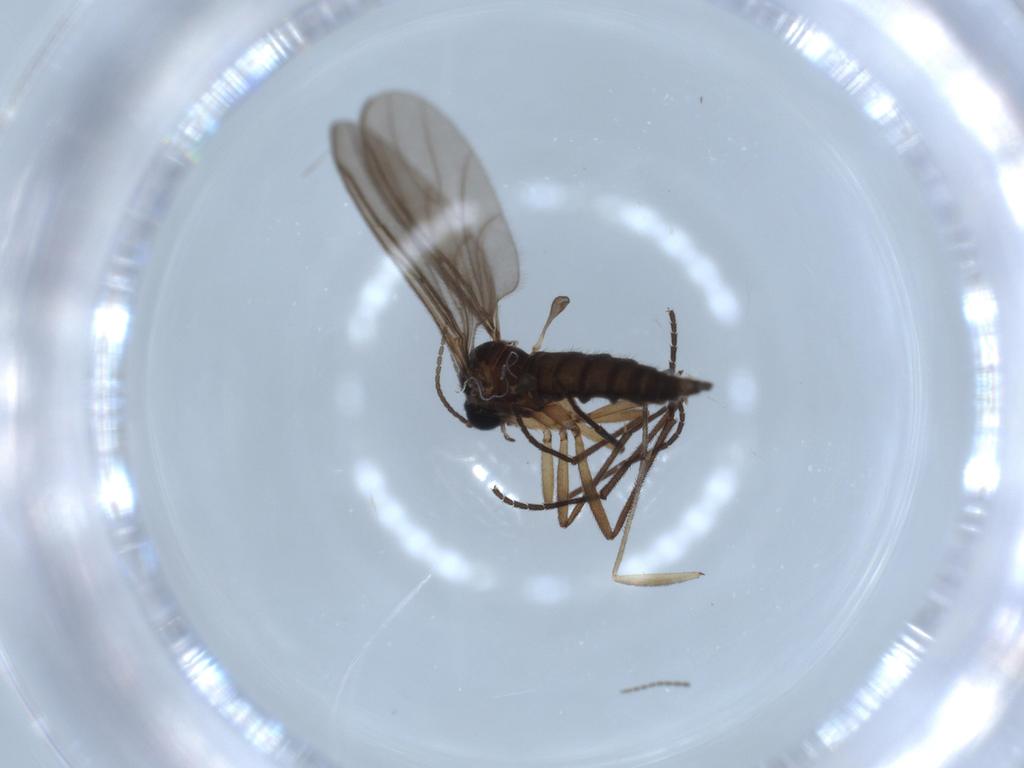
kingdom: Animalia
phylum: Arthropoda
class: Insecta
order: Diptera
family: Sciaridae
